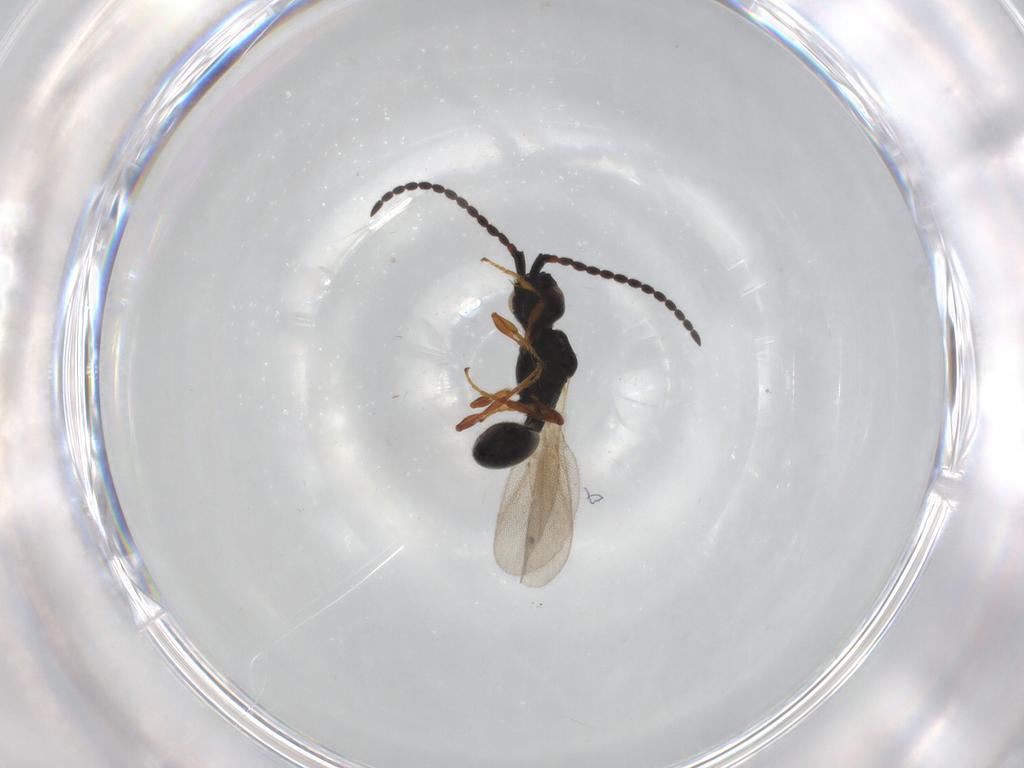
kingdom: Animalia
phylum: Arthropoda
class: Insecta
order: Hymenoptera
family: Diapriidae
